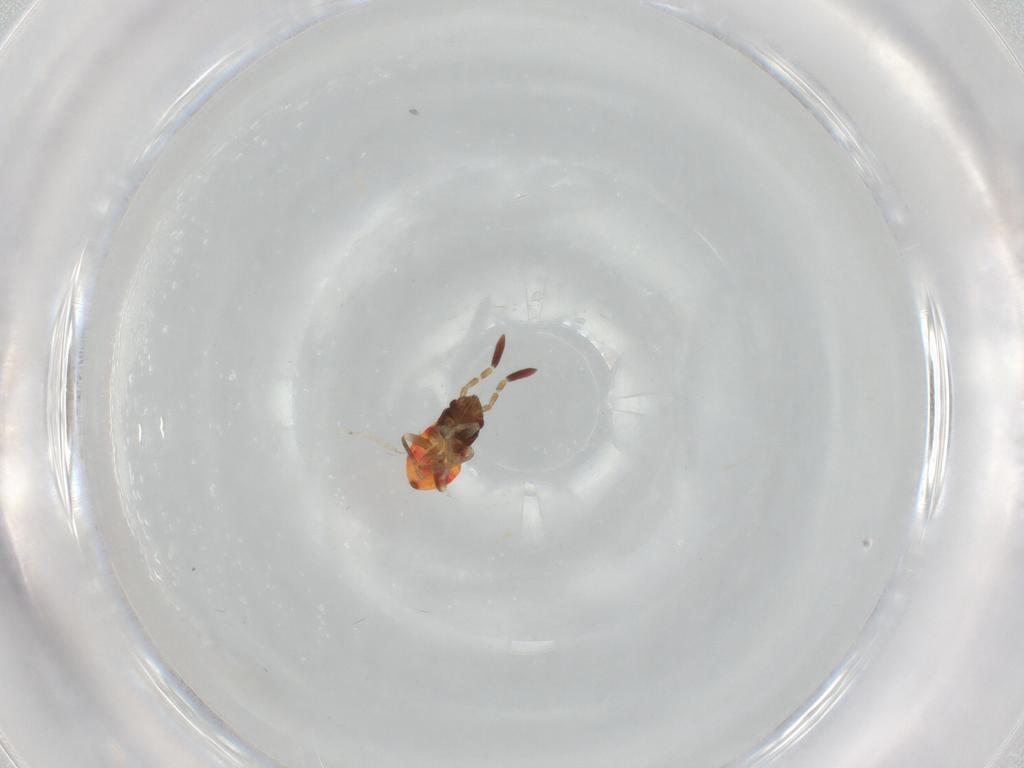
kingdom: Animalia
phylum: Arthropoda
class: Insecta
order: Hemiptera
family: Rhyparochromidae
